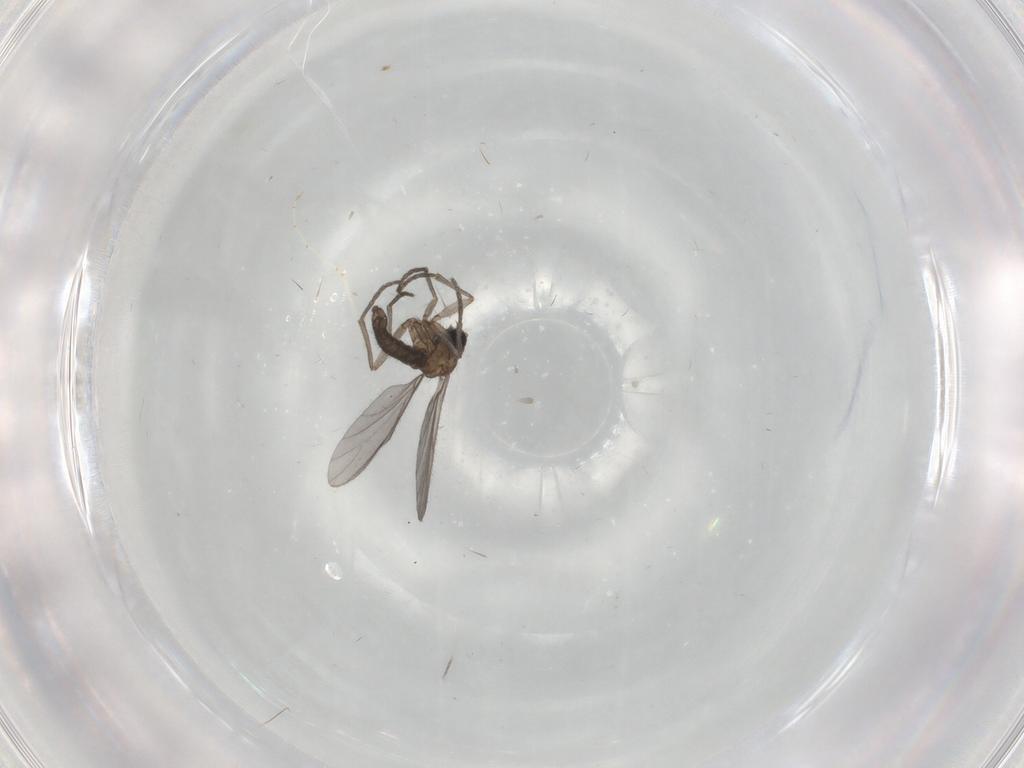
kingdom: Animalia
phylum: Arthropoda
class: Insecta
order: Diptera
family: Sciaridae
